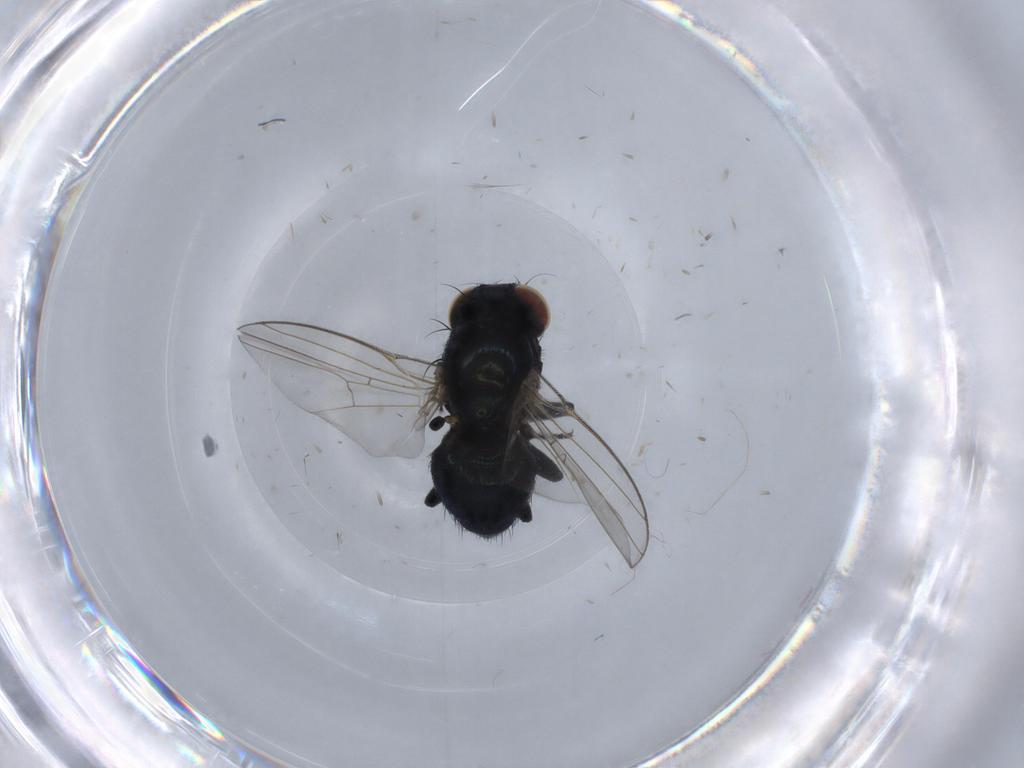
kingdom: Animalia
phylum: Arthropoda
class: Insecta
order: Diptera
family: Agromyzidae
